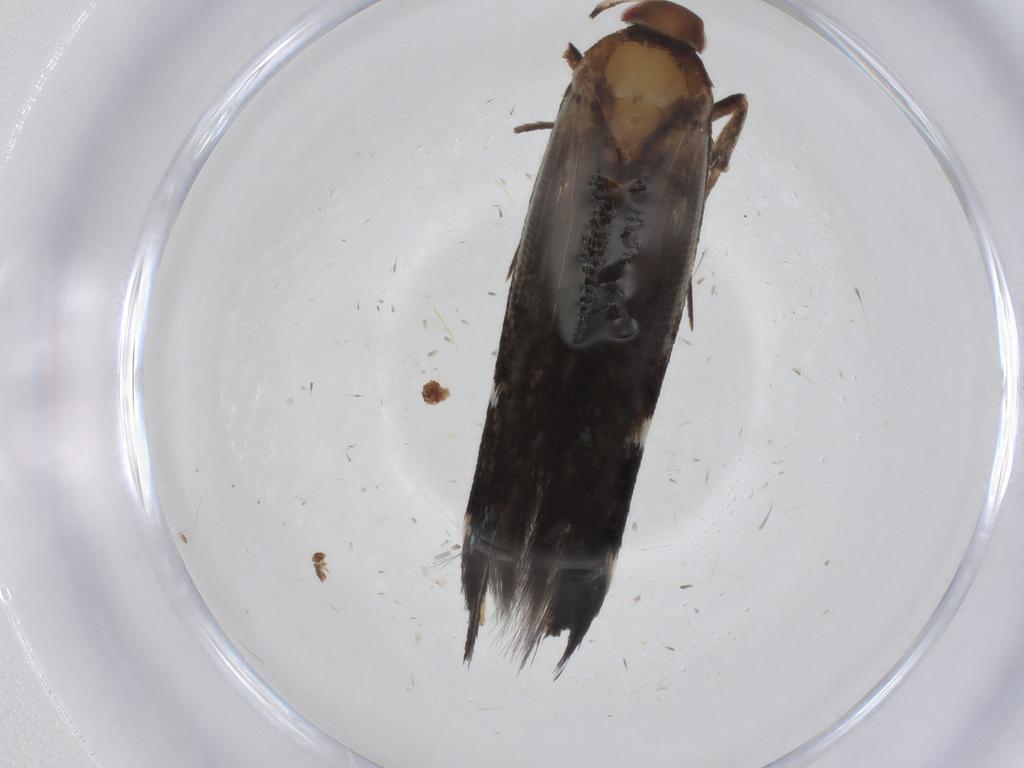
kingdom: Animalia
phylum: Arthropoda
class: Insecta
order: Lepidoptera
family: Cosmopterigidae
